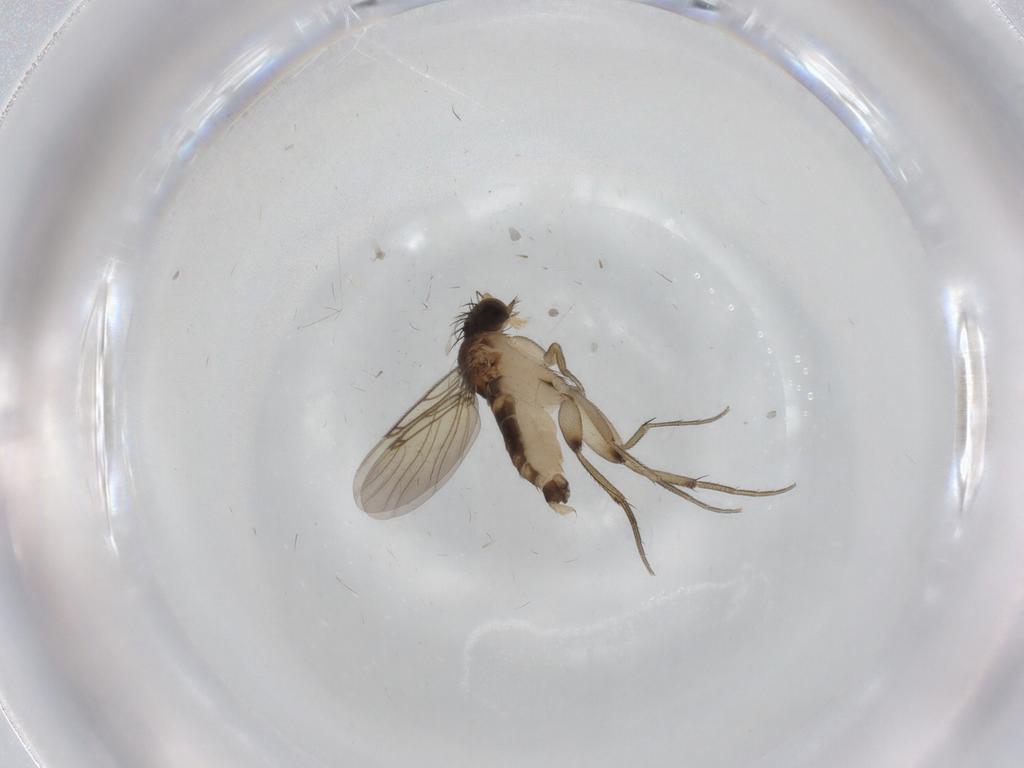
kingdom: Animalia
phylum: Arthropoda
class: Insecta
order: Diptera
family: Phoridae
